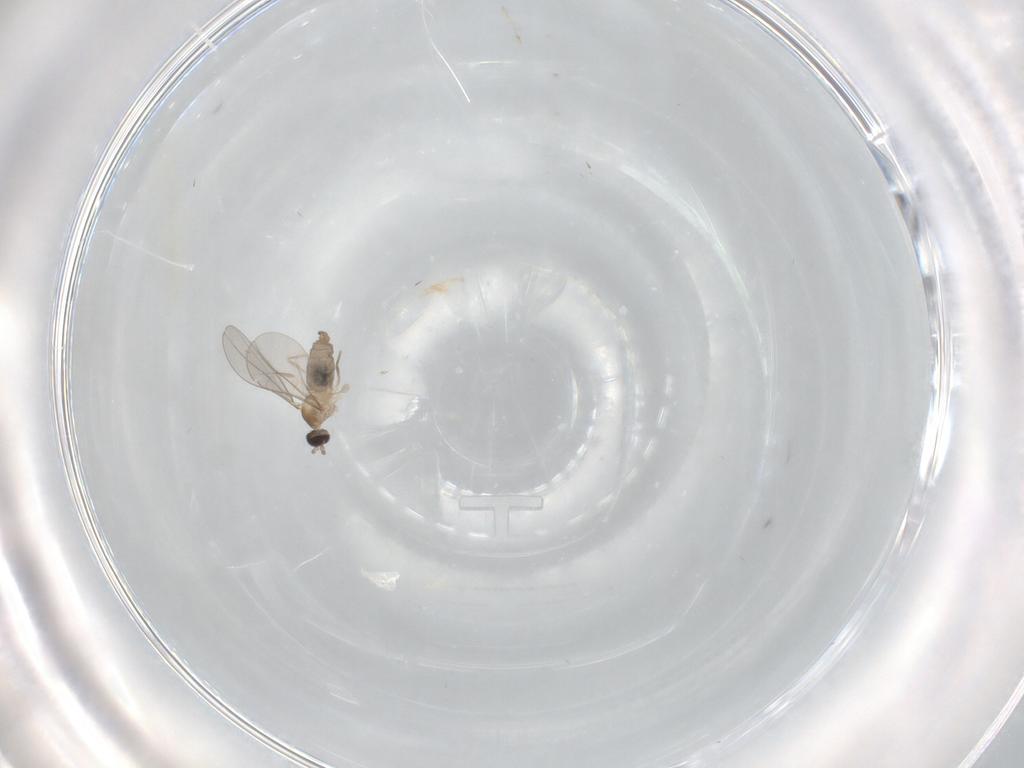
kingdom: Animalia
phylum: Arthropoda
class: Insecta
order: Diptera
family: Cecidomyiidae
